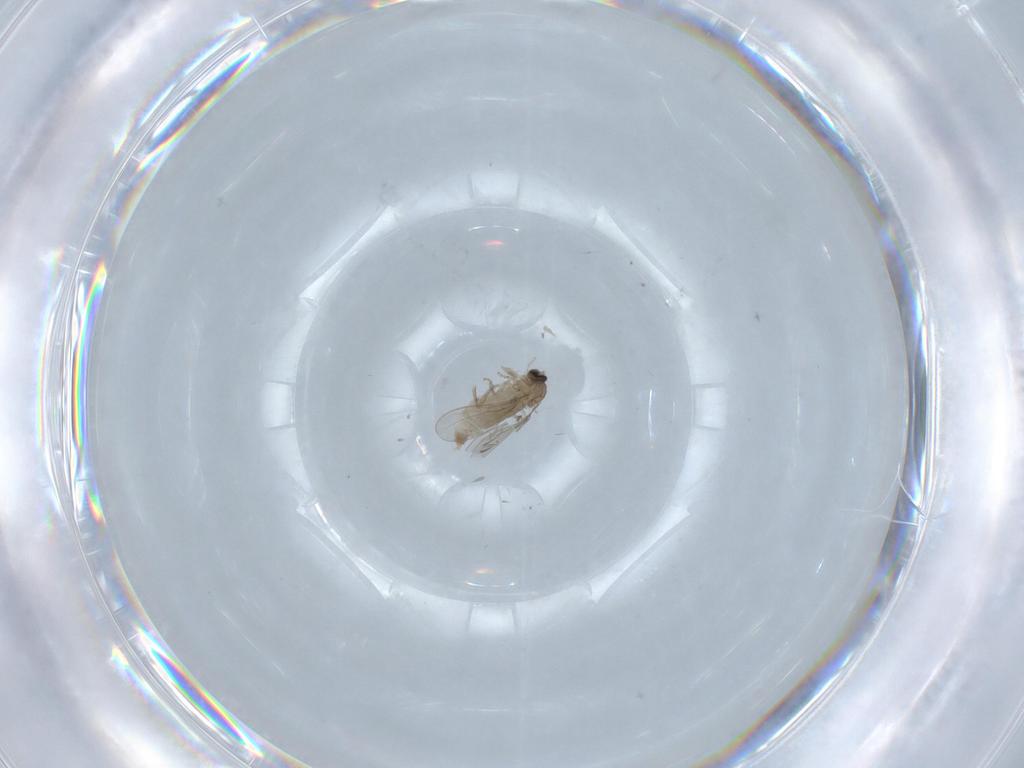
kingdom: Animalia
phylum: Arthropoda
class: Insecta
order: Diptera
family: Cecidomyiidae
